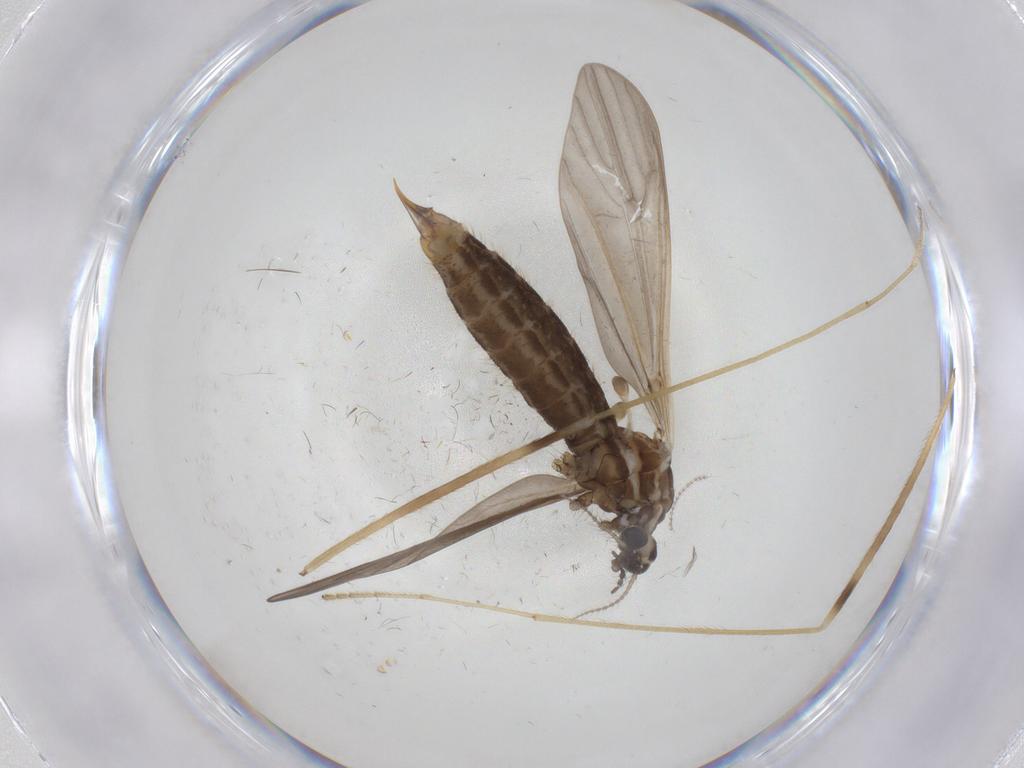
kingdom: Animalia
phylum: Arthropoda
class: Insecta
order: Diptera
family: Limoniidae
